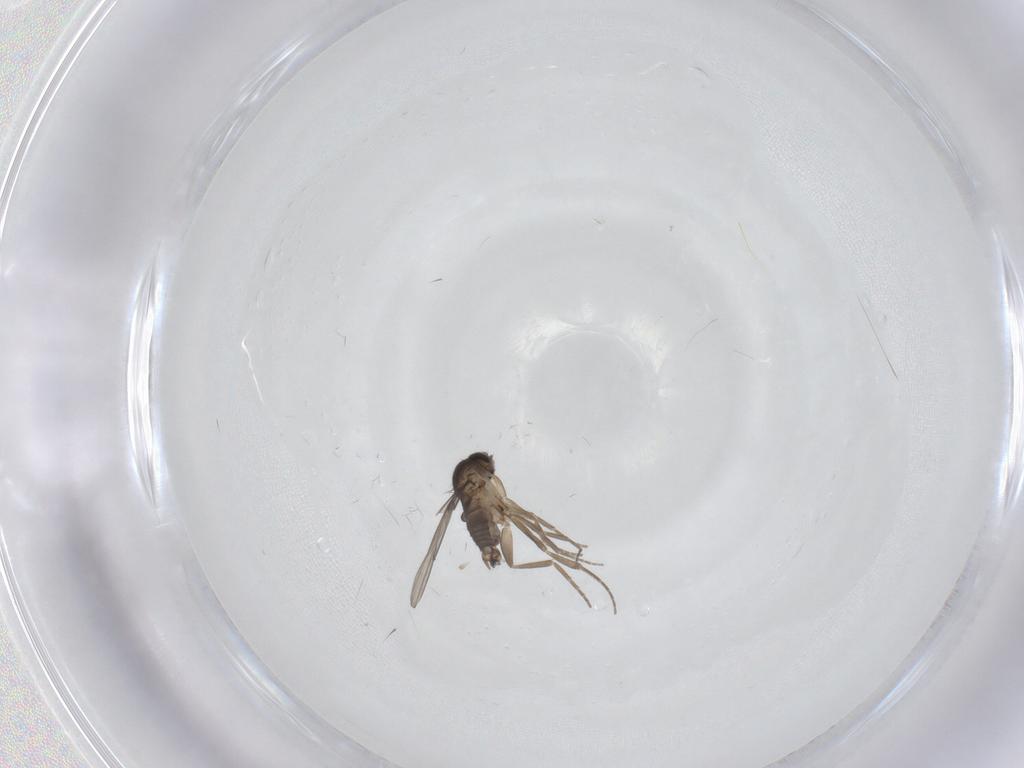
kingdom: Animalia
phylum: Arthropoda
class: Insecta
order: Diptera
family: Phoridae
